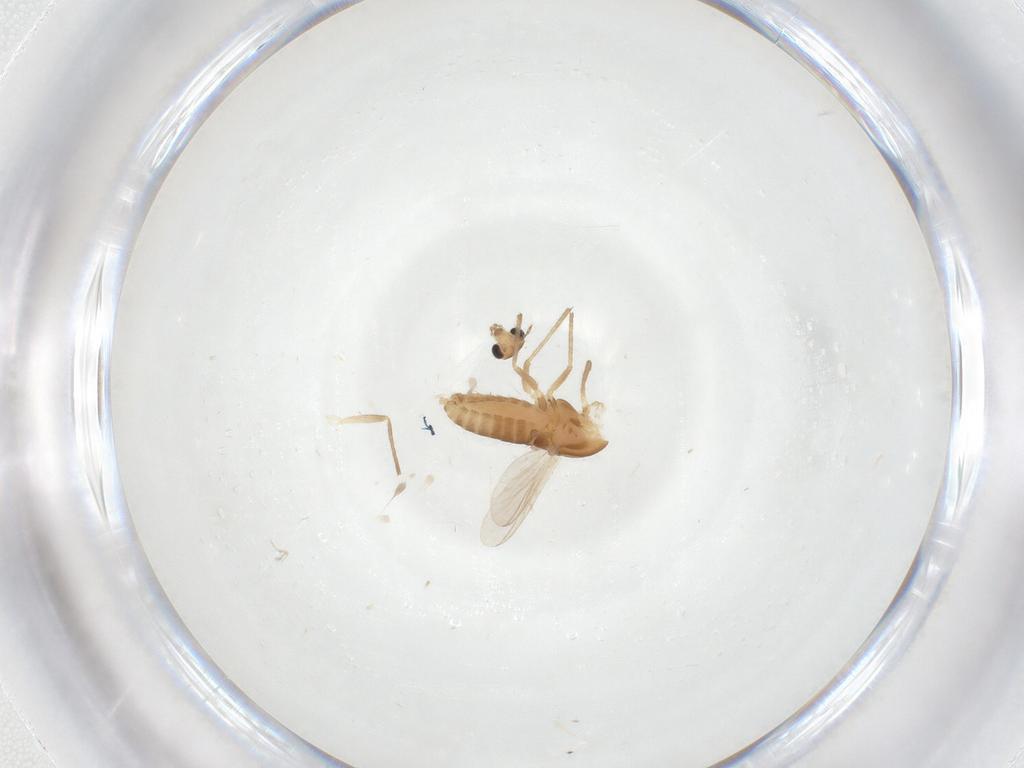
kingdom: Animalia
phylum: Arthropoda
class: Insecta
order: Diptera
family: Chironomidae
